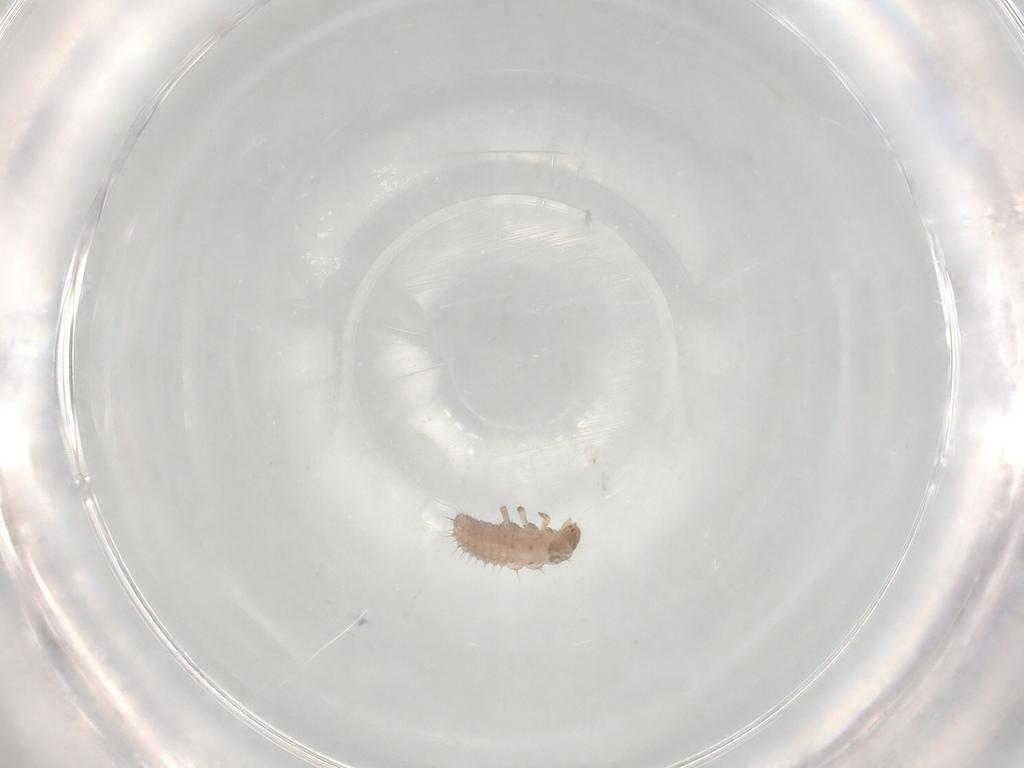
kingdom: Animalia
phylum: Arthropoda
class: Insecta
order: Coleoptera
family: Coccinellidae
